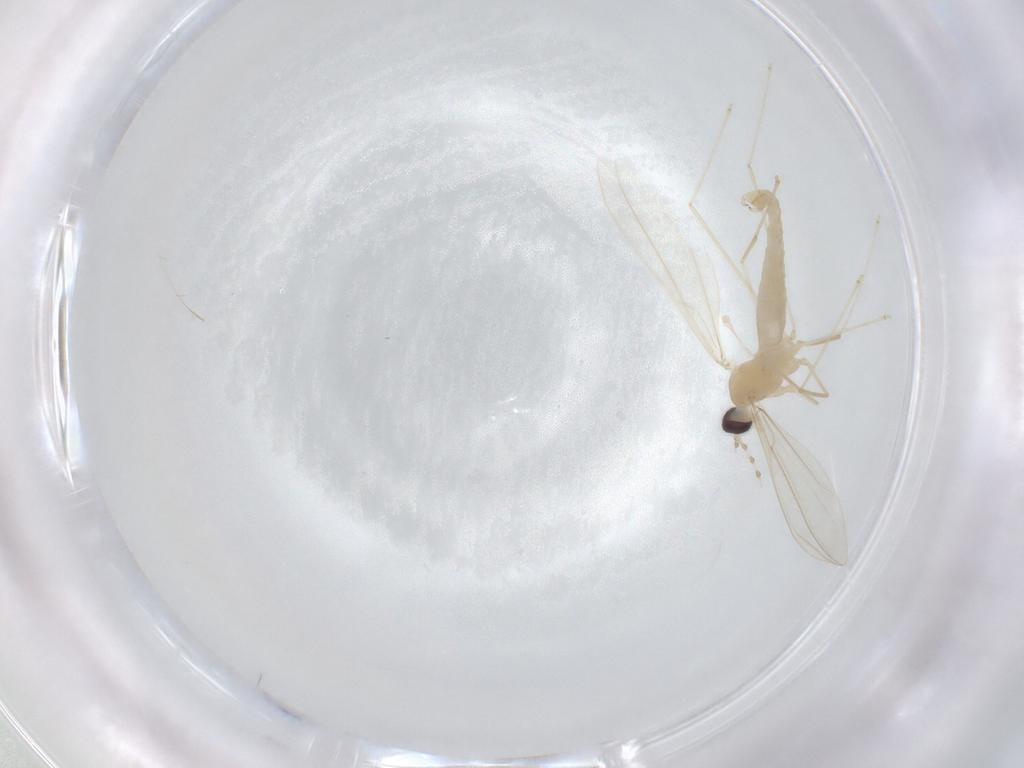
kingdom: Animalia
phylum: Arthropoda
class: Insecta
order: Diptera
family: Cecidomyiidae
